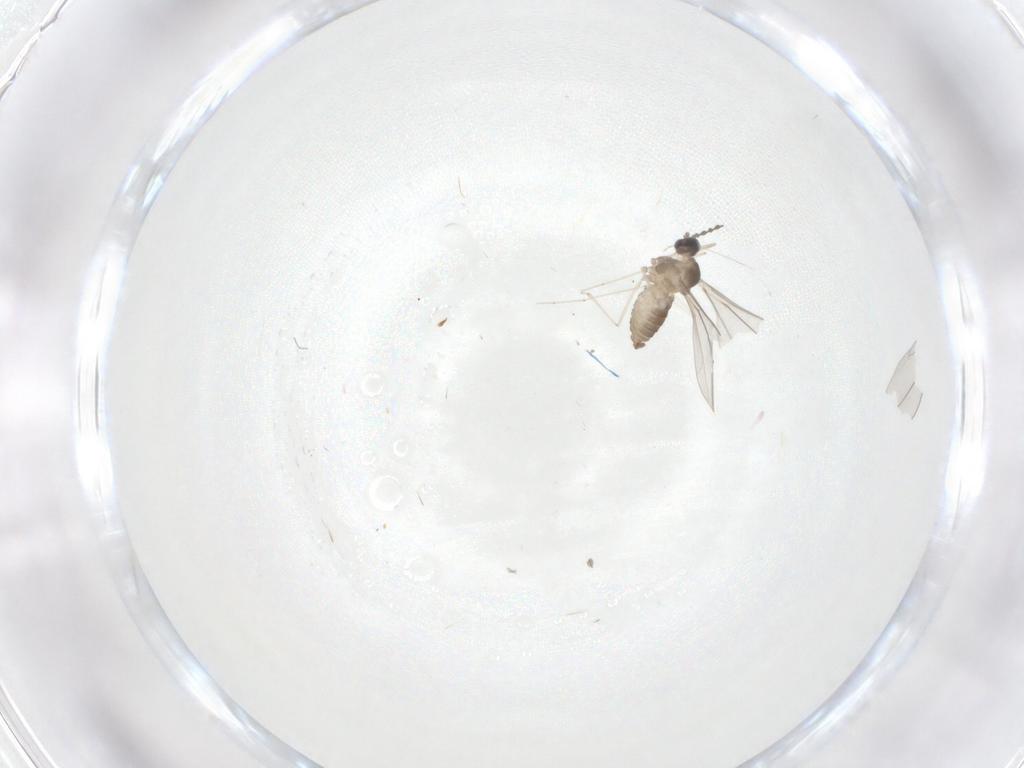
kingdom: Animalia
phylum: Arthropoda
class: Insecta
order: Diptera
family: Cecidomyiidae
